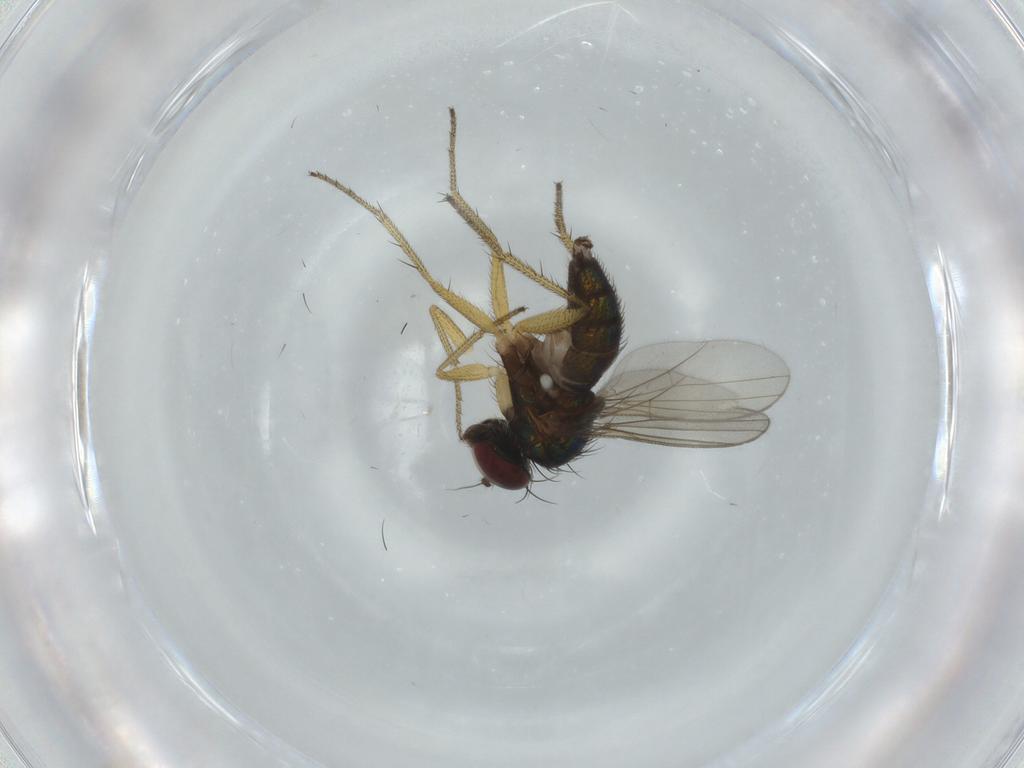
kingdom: Animalia
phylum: Arthropoda
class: Insecta
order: Diptera
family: Dolichopodidae
